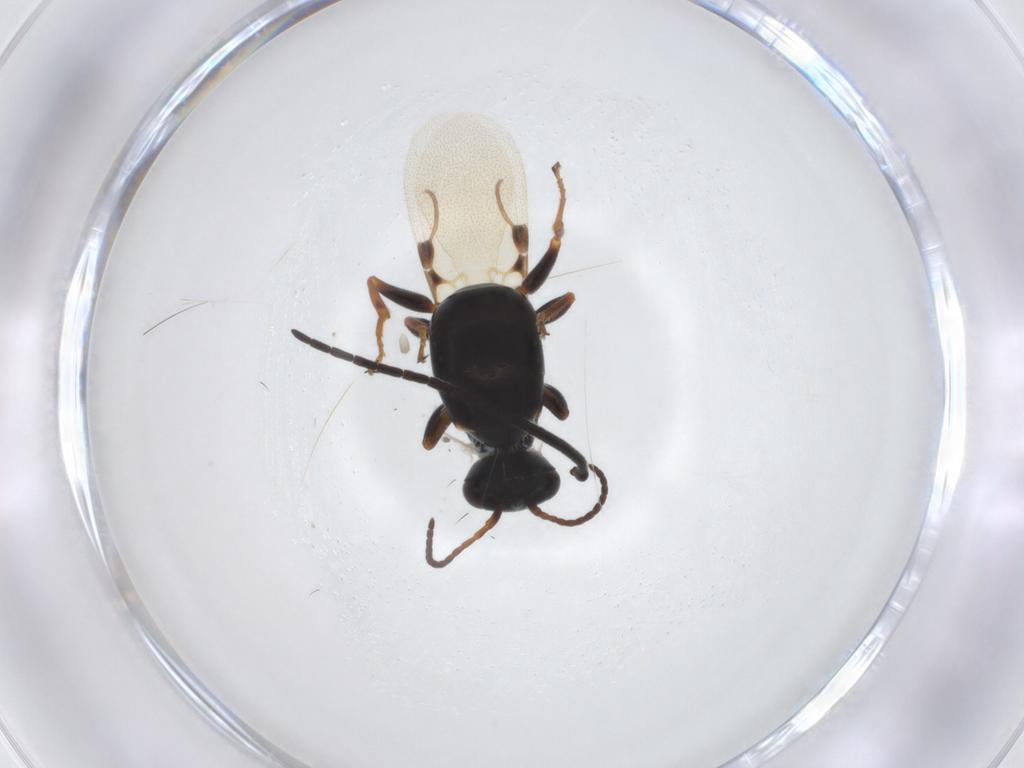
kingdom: Animalia
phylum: Arthropoda
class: Insecta
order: Hymenoptera
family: Bethylidae
